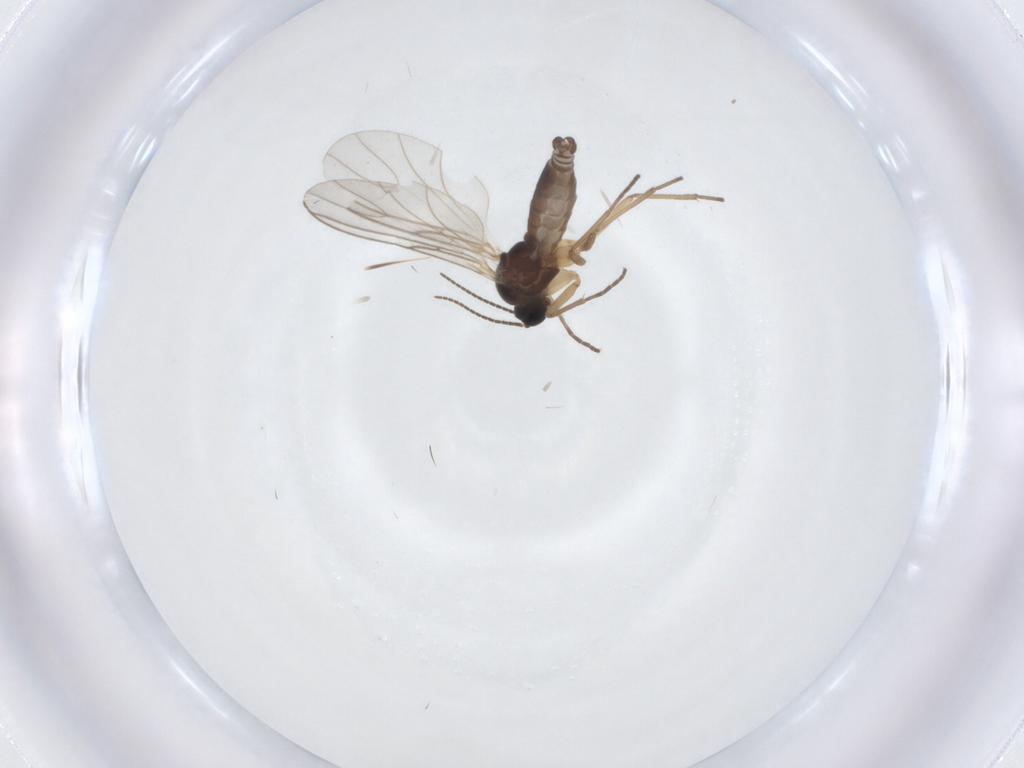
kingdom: Animalia
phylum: Arthropoda
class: Insecta
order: Diptera
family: Sciaridae
